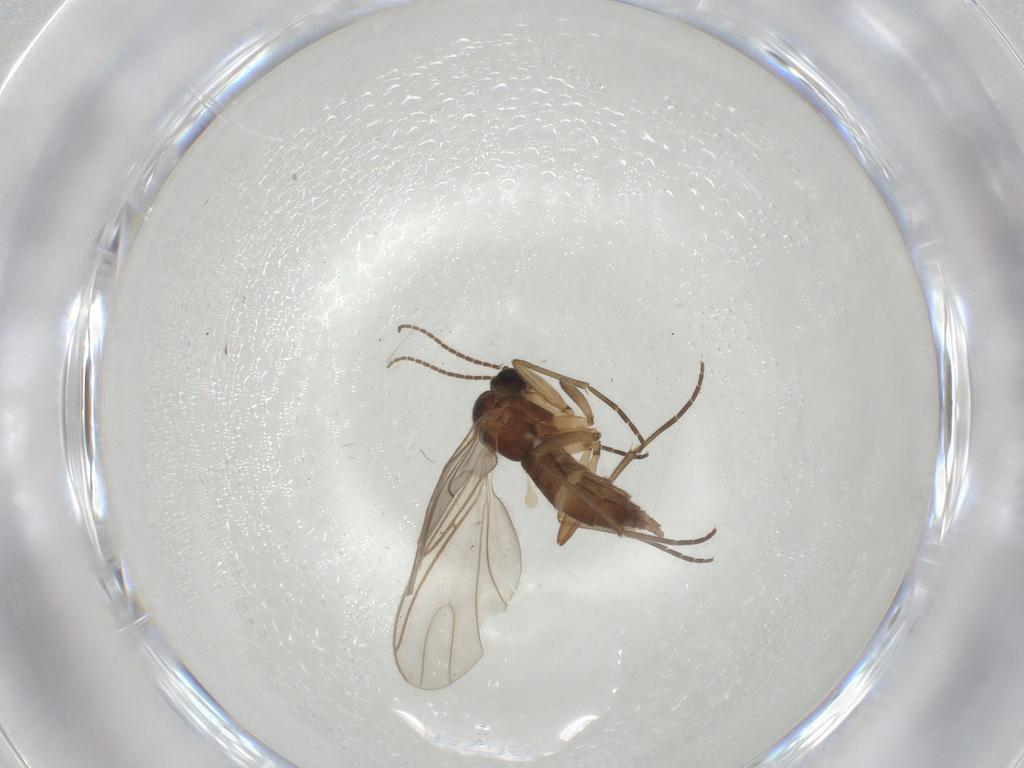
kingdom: Animalia
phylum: Arthropoda
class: Insecta
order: Diptera
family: Sciaridae
